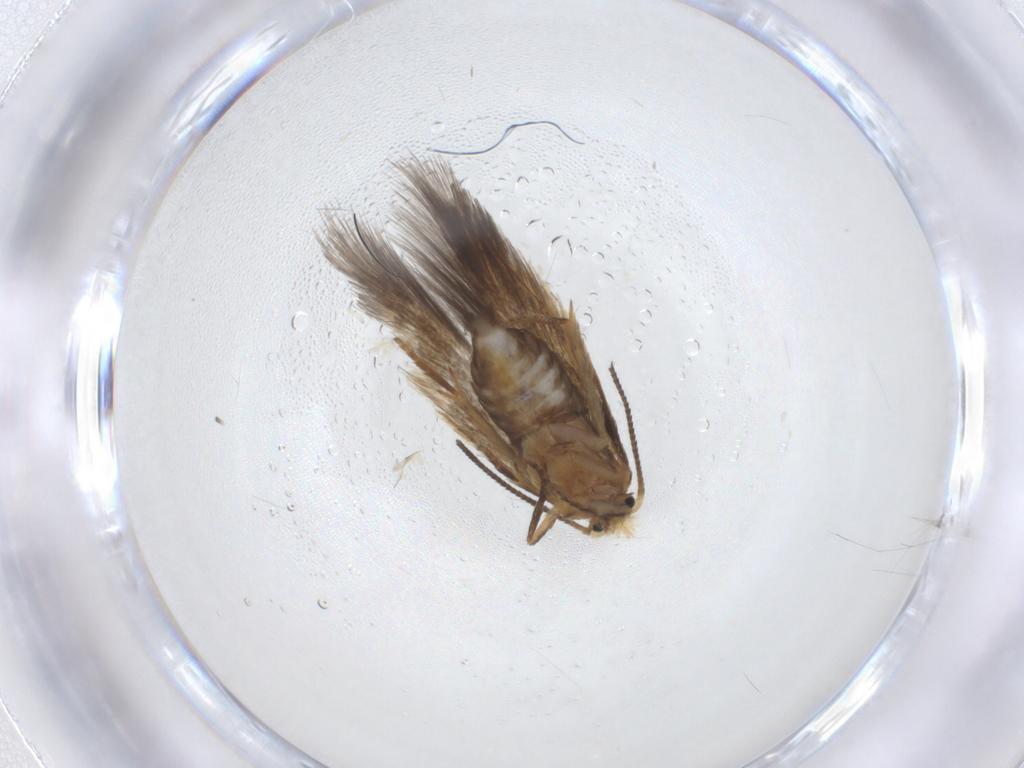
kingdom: Animalia
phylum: Arthropoda
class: Insecta
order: Lepidoptera
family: Nepticulidae
